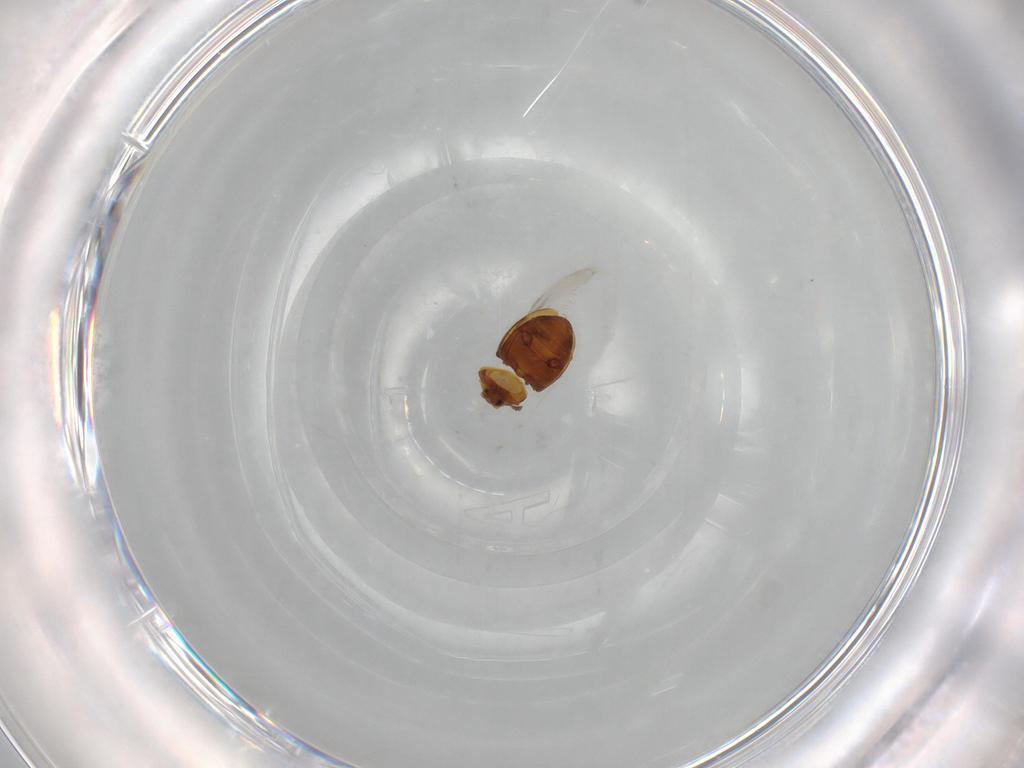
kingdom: Animalia
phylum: Arthropoda
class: Insecta
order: Coleoptera
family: Corylophidae
